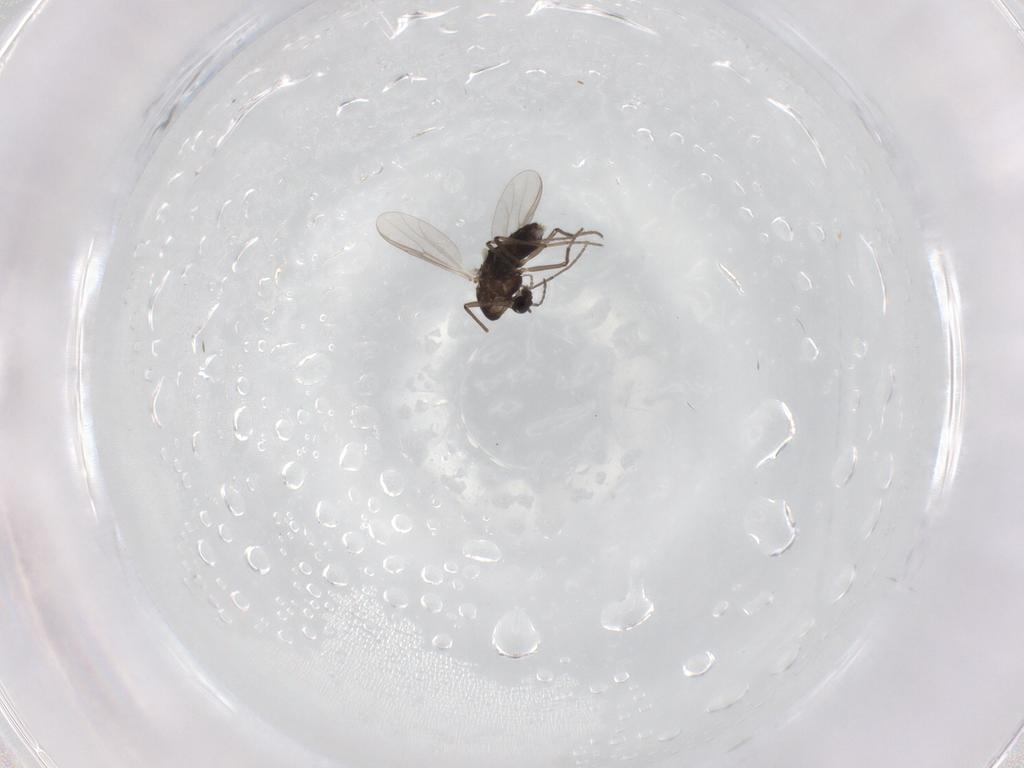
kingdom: Animalia
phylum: Arthropoda
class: Insecta
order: Diptera
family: Chironomidae
